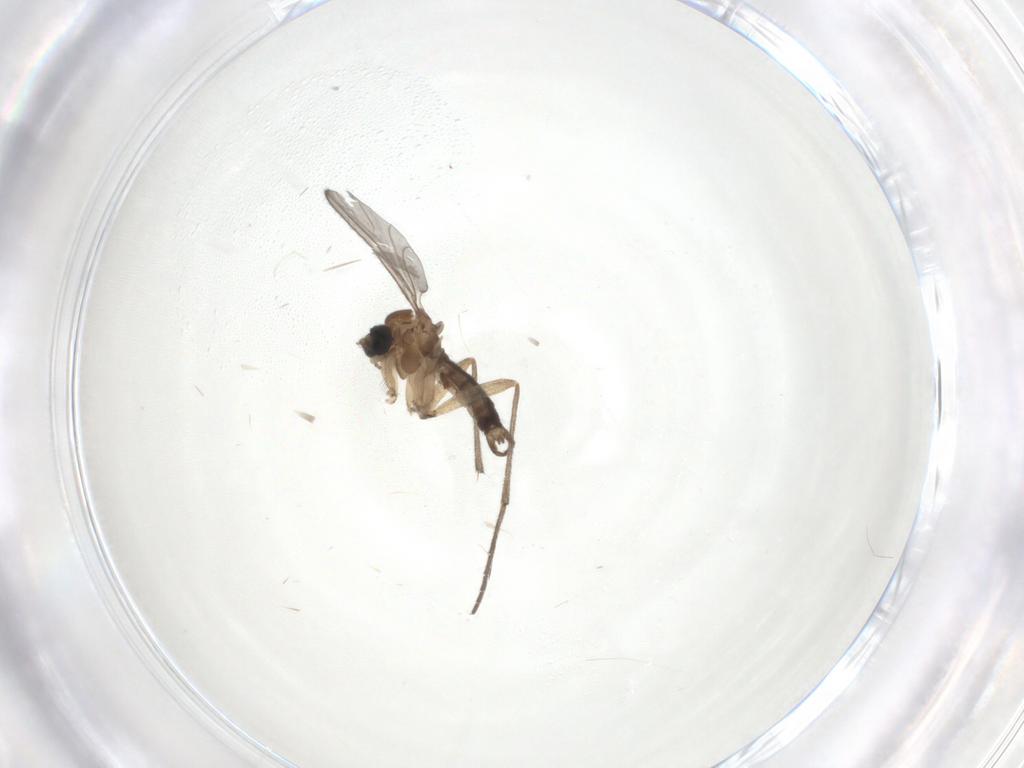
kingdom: Animalia
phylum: Arthropoda
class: Insecta
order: Diptera
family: Sciaridae
